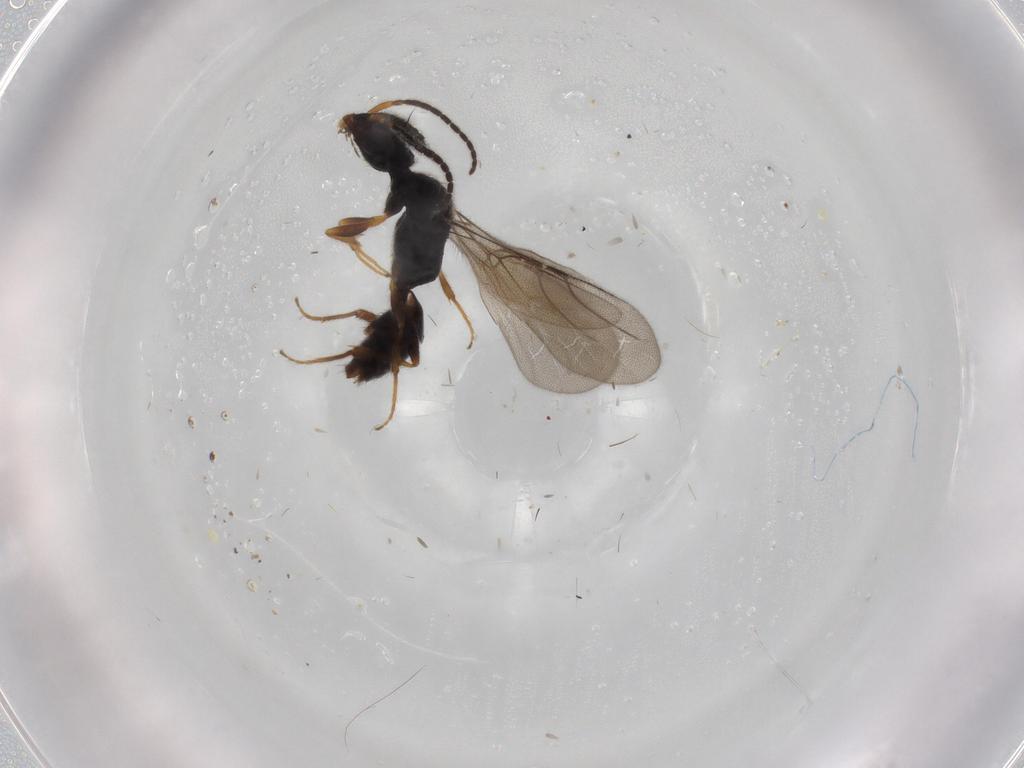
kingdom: Animalia
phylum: Arthropoda
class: Insecta
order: Hymenoptera
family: Bethylidae
